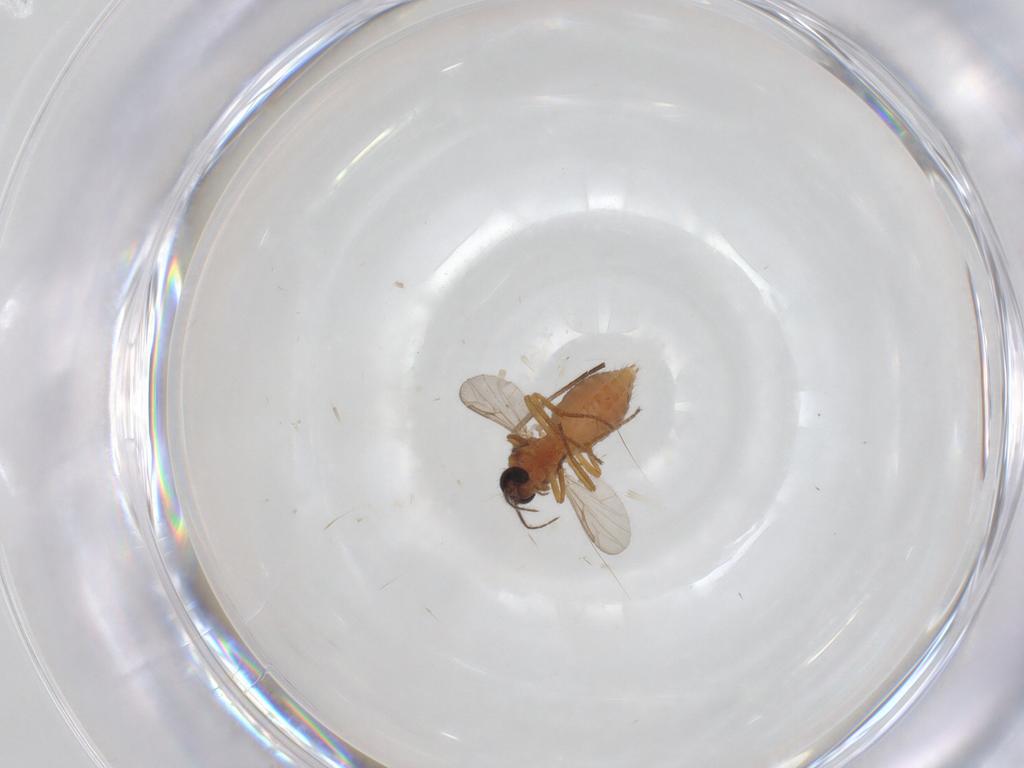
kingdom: Animalia
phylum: Arthropoda
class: Insecta
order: Diptera
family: Sciaridae
